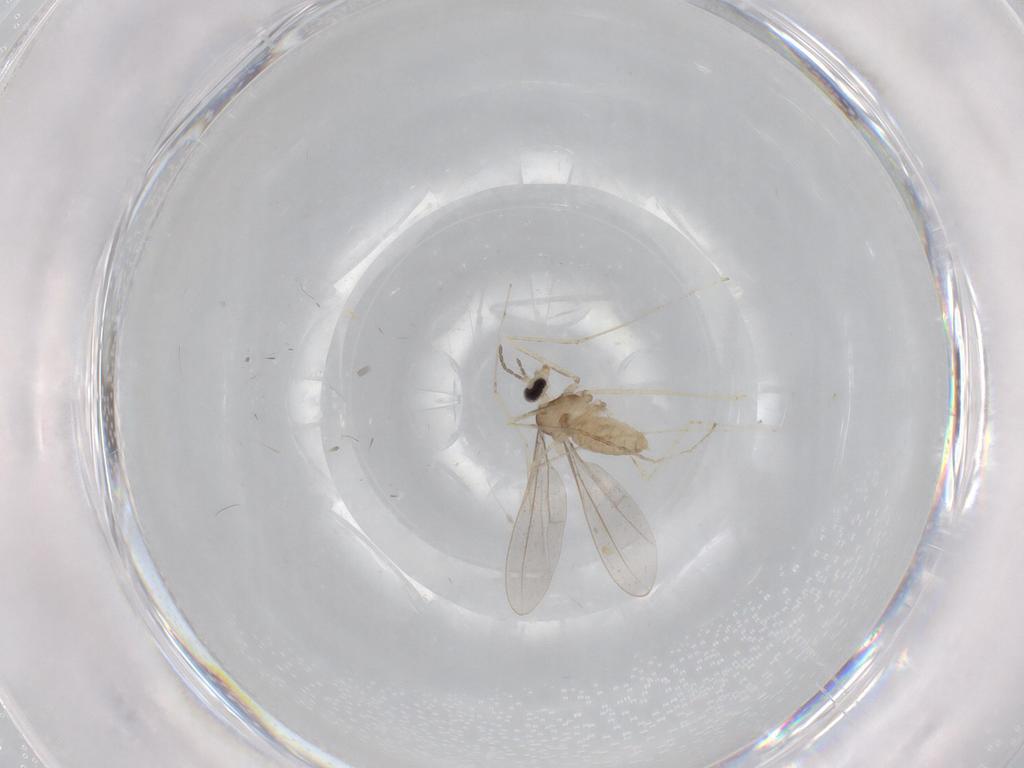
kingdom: Animalia
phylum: Arthropoda
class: Insecta
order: Diptera
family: Cecidomyiidae
